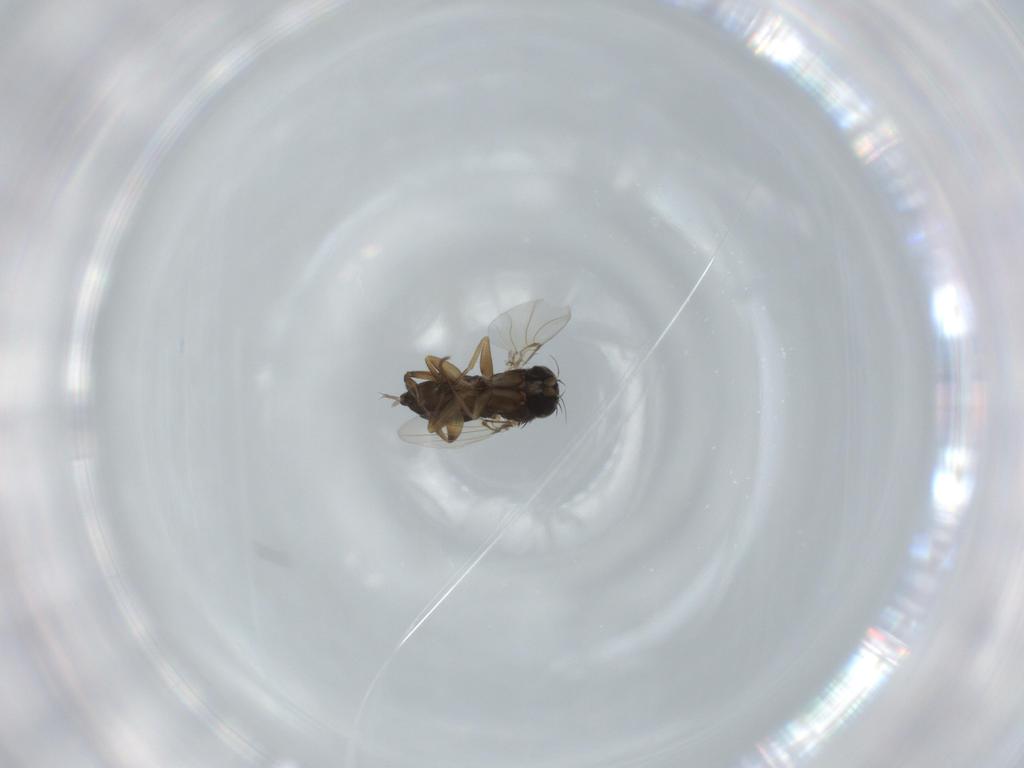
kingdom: Animalia
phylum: Arthropoda
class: Insecta
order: Diptera
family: Phoridae
